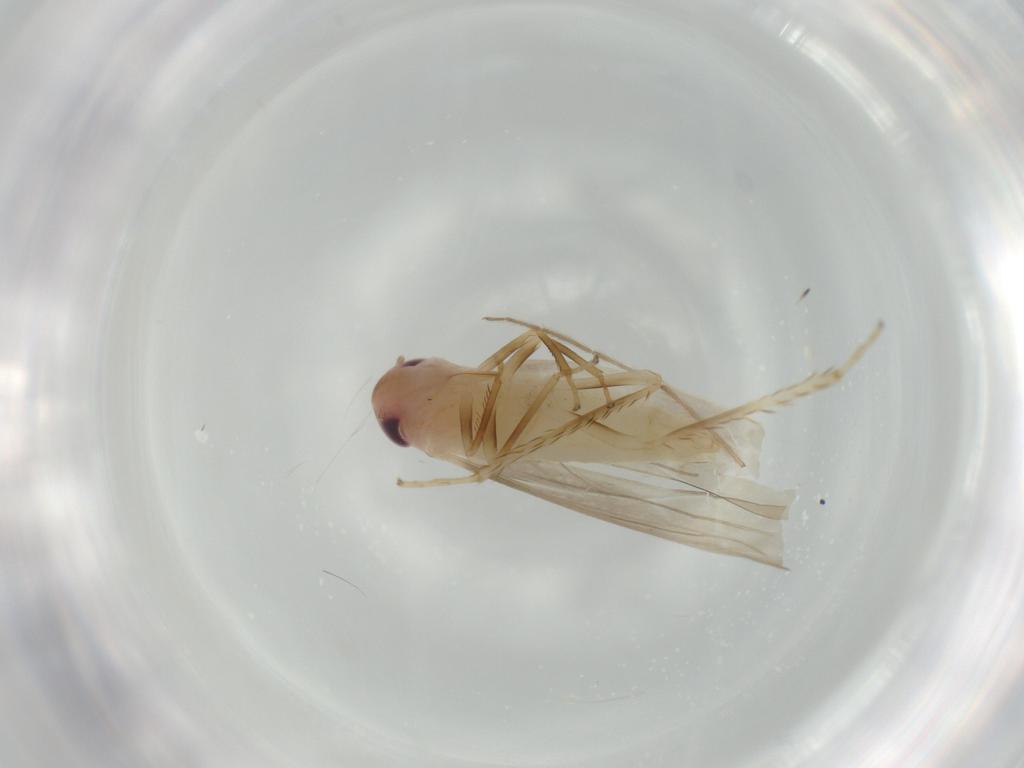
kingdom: Animalia
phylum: Arthropoda
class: Insecta
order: Hemiptera
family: Cicadellidae
